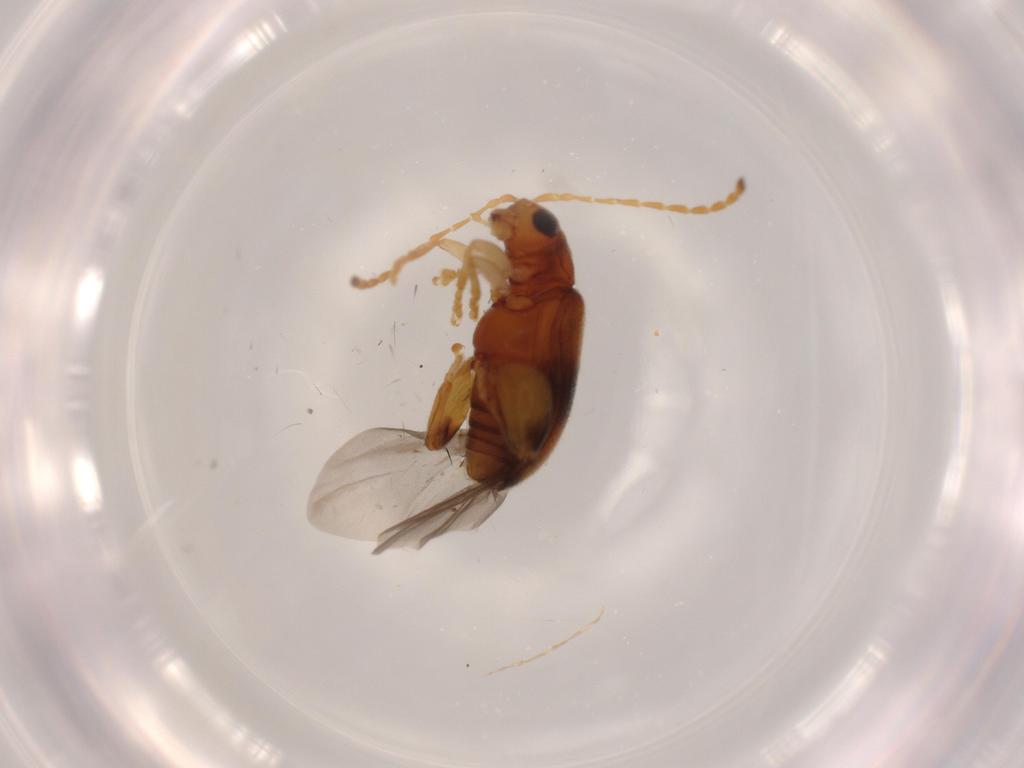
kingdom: Animalia
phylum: Arthropoda
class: Insecta
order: Coleoptera
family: Chrysomelidae
